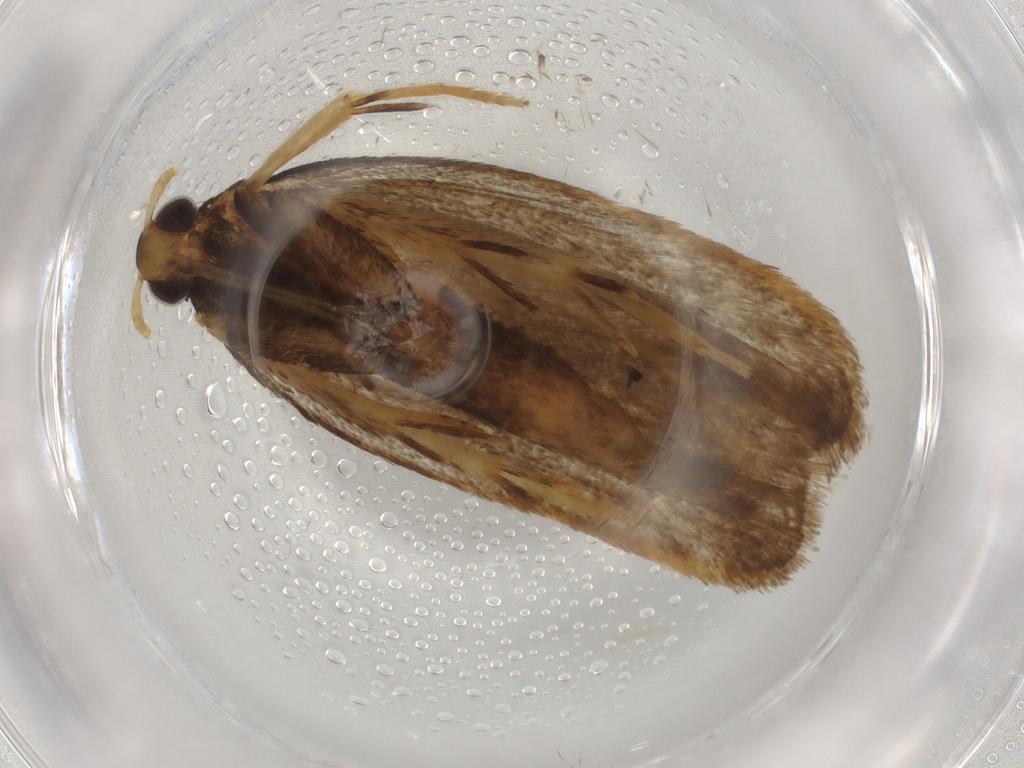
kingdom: Animalia
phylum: Arthropoda
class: Insecta
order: Lepidoptera
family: Lecithoceridae
